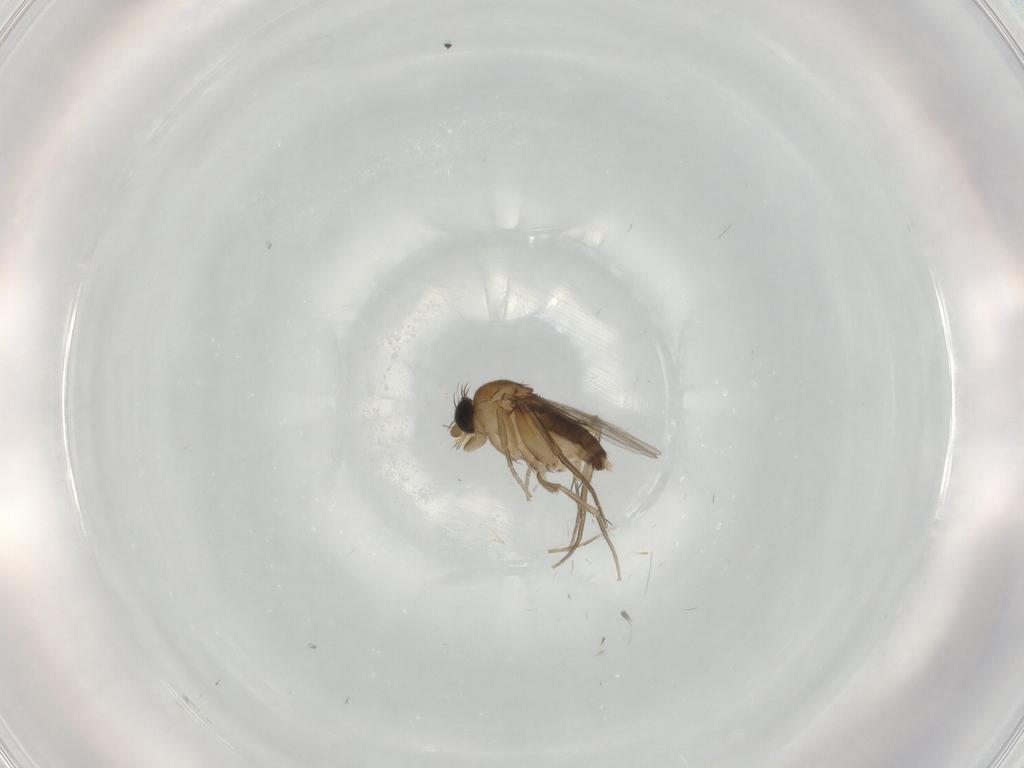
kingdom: Animalia
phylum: Arthropoda
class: Insecta
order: Diptera
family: Phoridae
